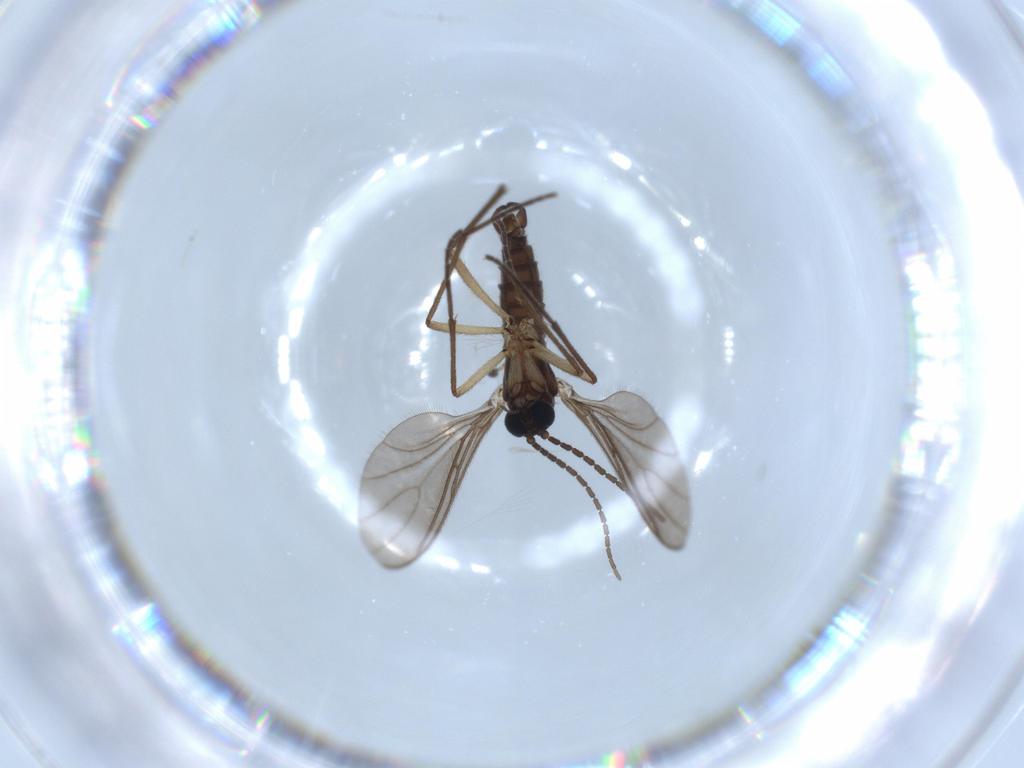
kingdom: Animalia
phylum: Arthropoda
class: Insecta
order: Diptera
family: Sciaridae
